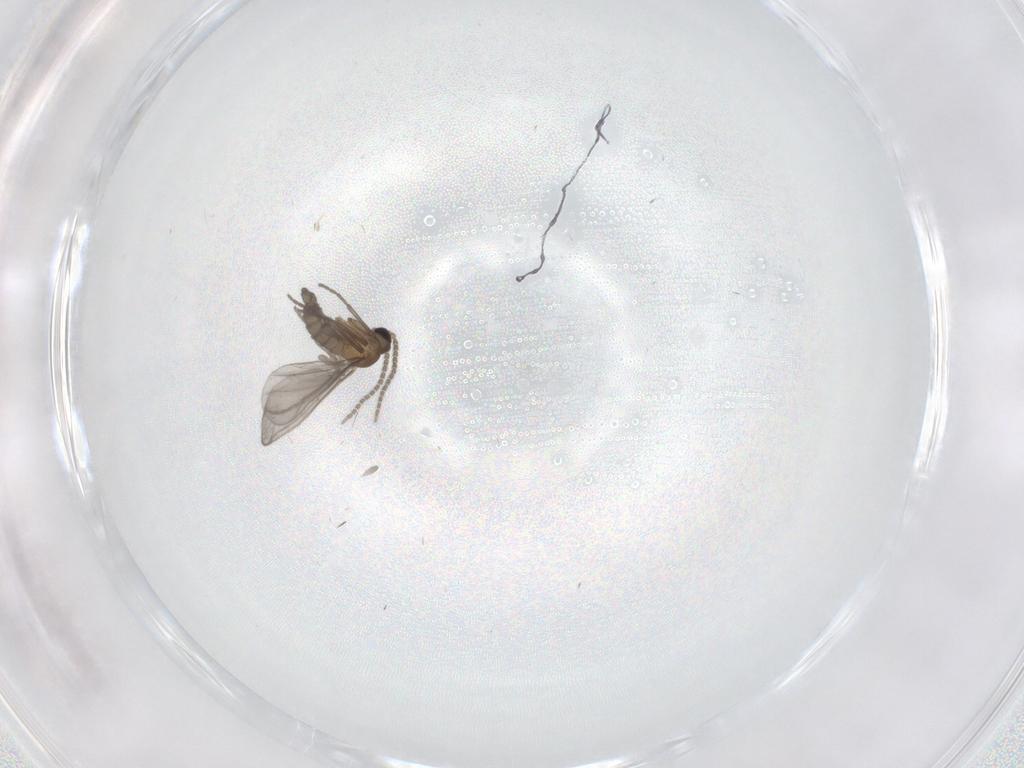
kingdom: Animalia
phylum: Arthropoda
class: Insecta
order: Diptera
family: Sciaridae
